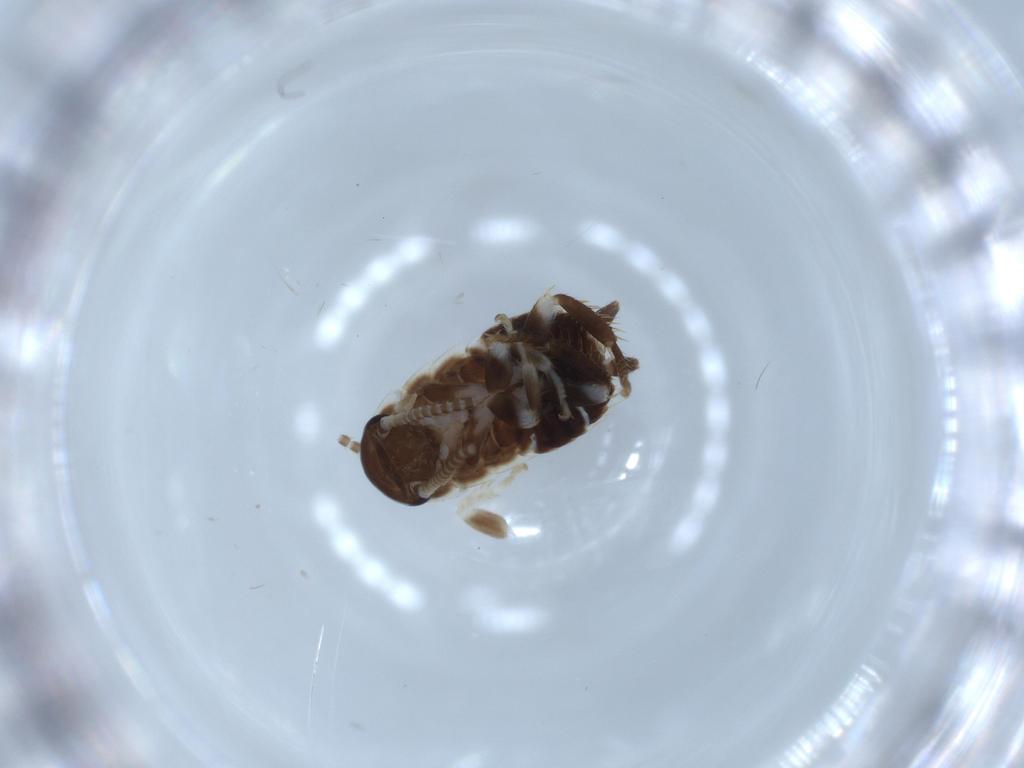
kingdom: Animalia
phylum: Arthropoda
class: Insecta
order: Blattodea
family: Ectobiidae
